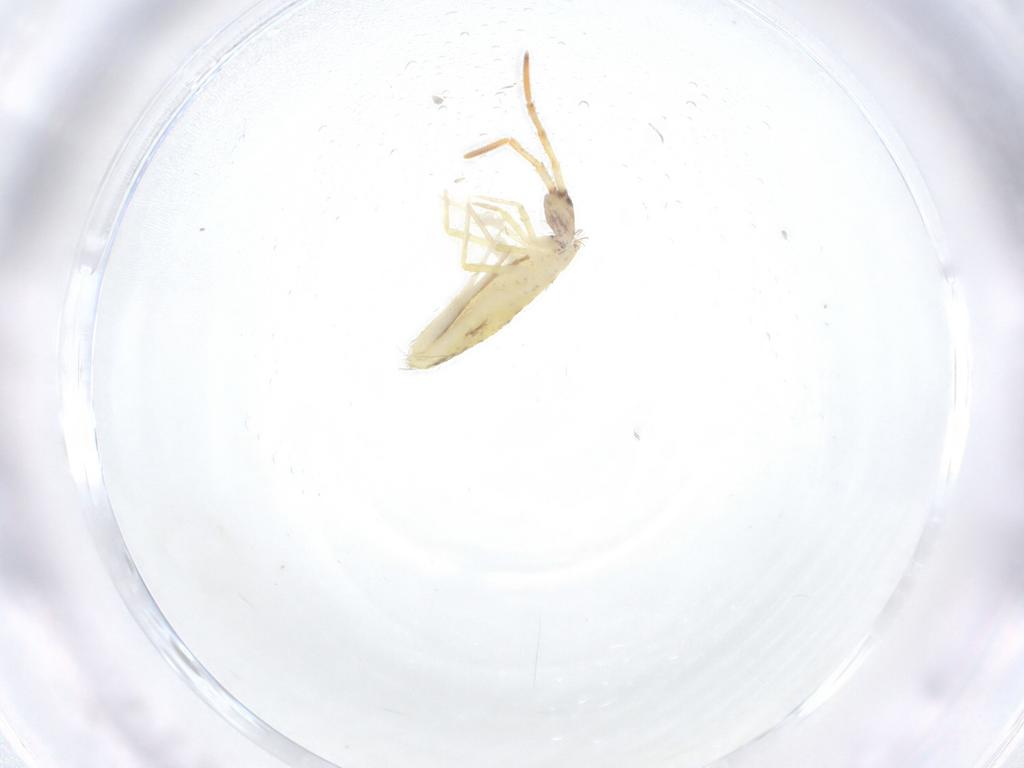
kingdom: Animalia
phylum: Arthropoda
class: Collembola
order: Entomobryomorpha
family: Entomobryidae
